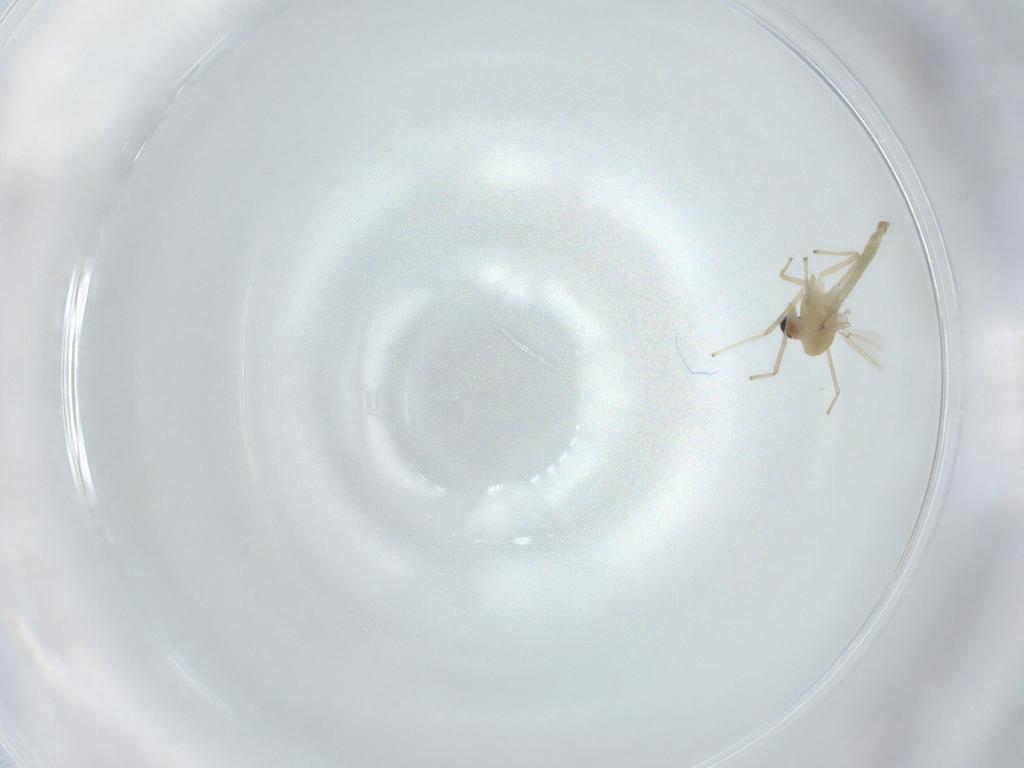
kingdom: Animalia
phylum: Arthropoda
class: Insecta
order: Diptera
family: Chironomidae
